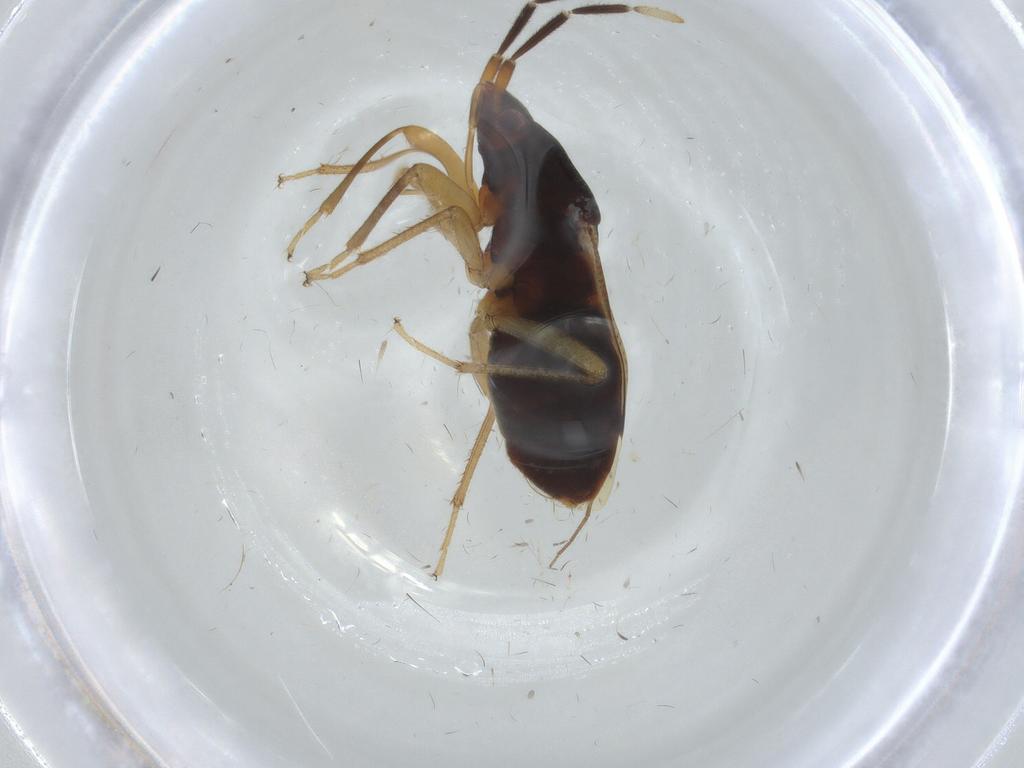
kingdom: Animalia
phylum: Arthropoda
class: Insecta
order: Hemiptera
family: Rhyparochromidae
